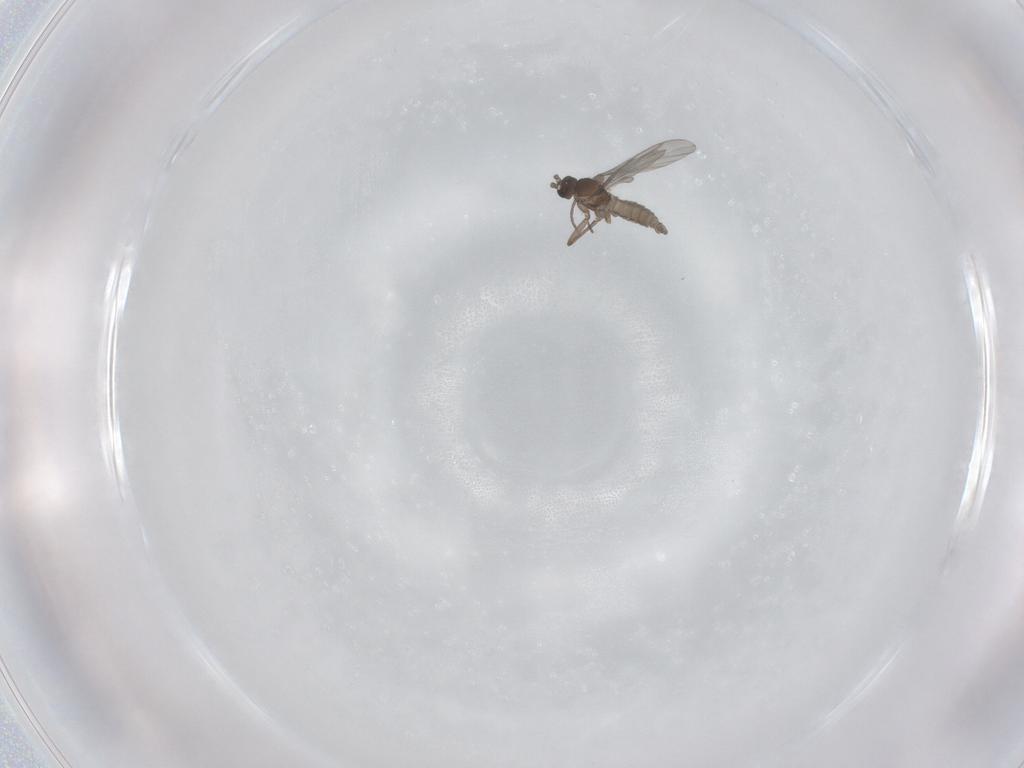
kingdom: Animalia
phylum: Arthropoda
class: Insecta
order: Diptera
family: Sciaridae
